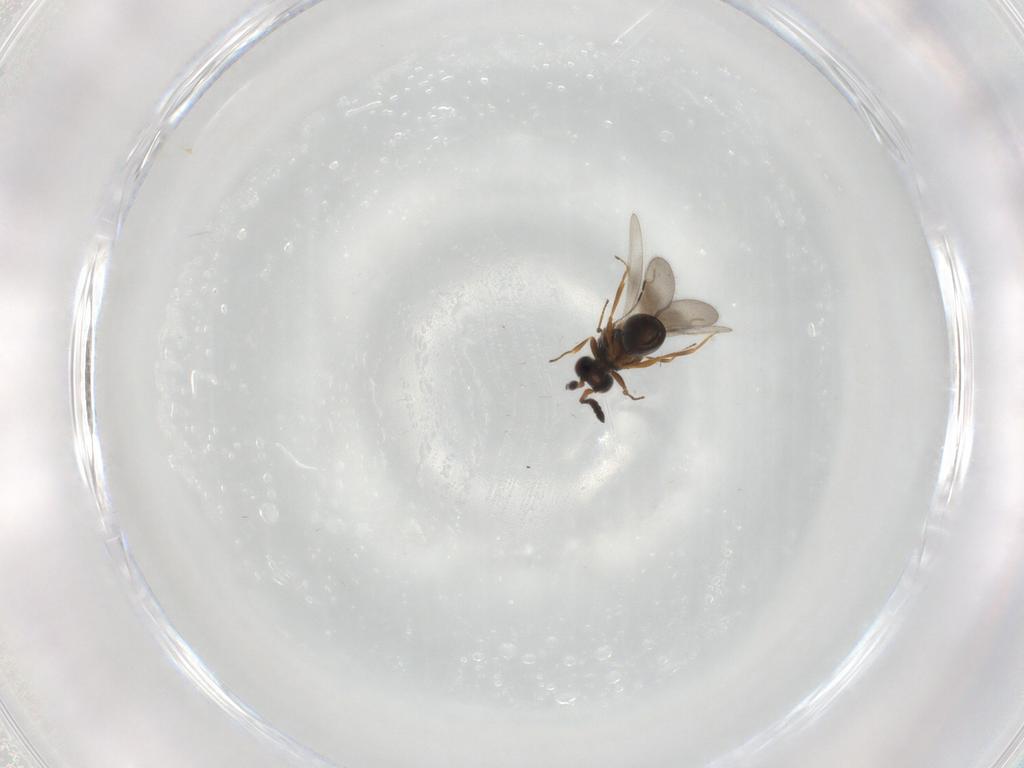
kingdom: Animalia
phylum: Arthropoda
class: Insecta
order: Hymenoptera
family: Ceraphronidae
